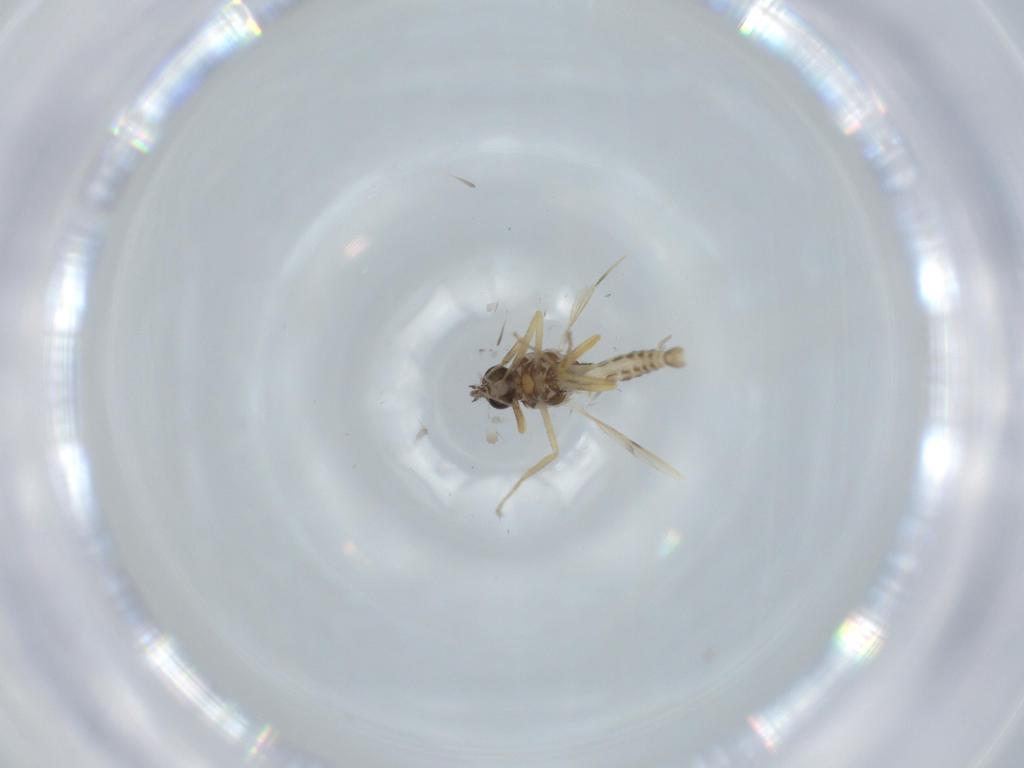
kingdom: Animalia
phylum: Arthropoda
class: Insecta
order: Diptera
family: Ceratopogonidae
